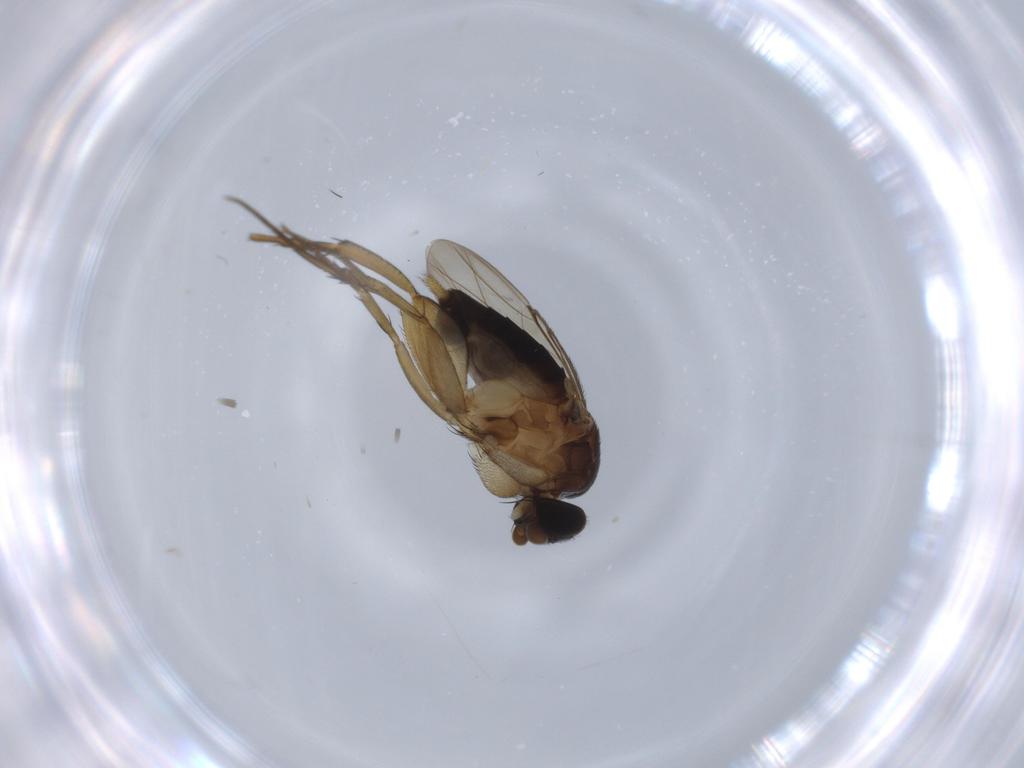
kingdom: Animalia
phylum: Arthropoda
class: Insecta
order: Diptera
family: Phoridae
